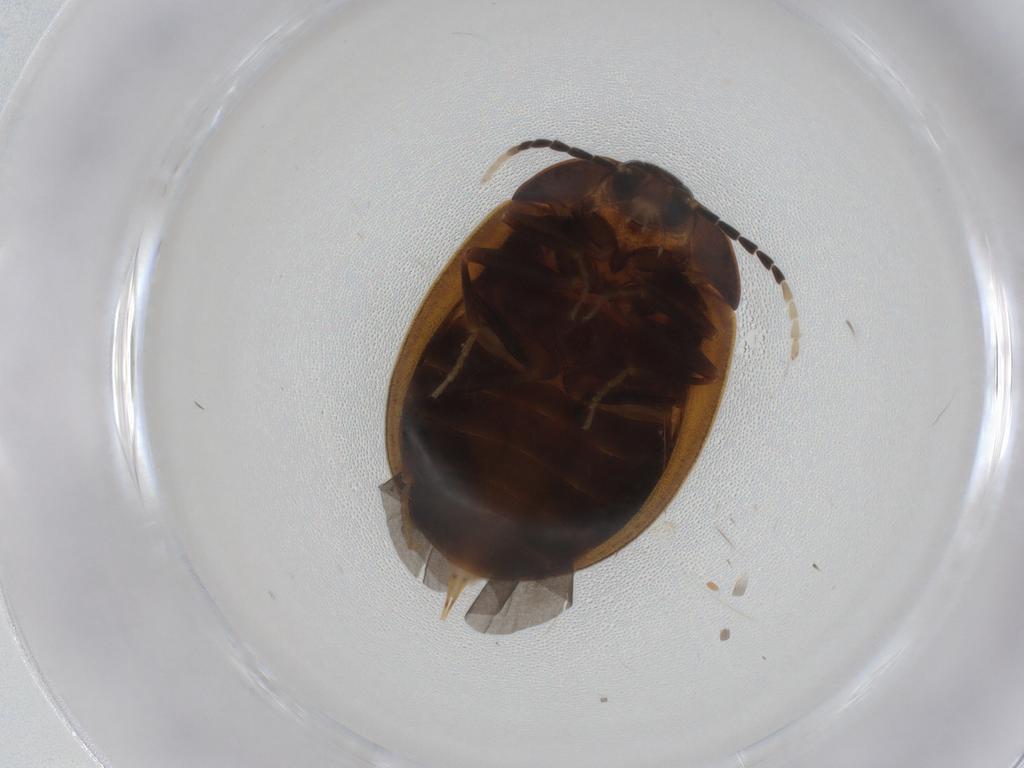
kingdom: Animalia
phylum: Arthropoda
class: Insecta
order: Coleoptera
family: Psephenidae
